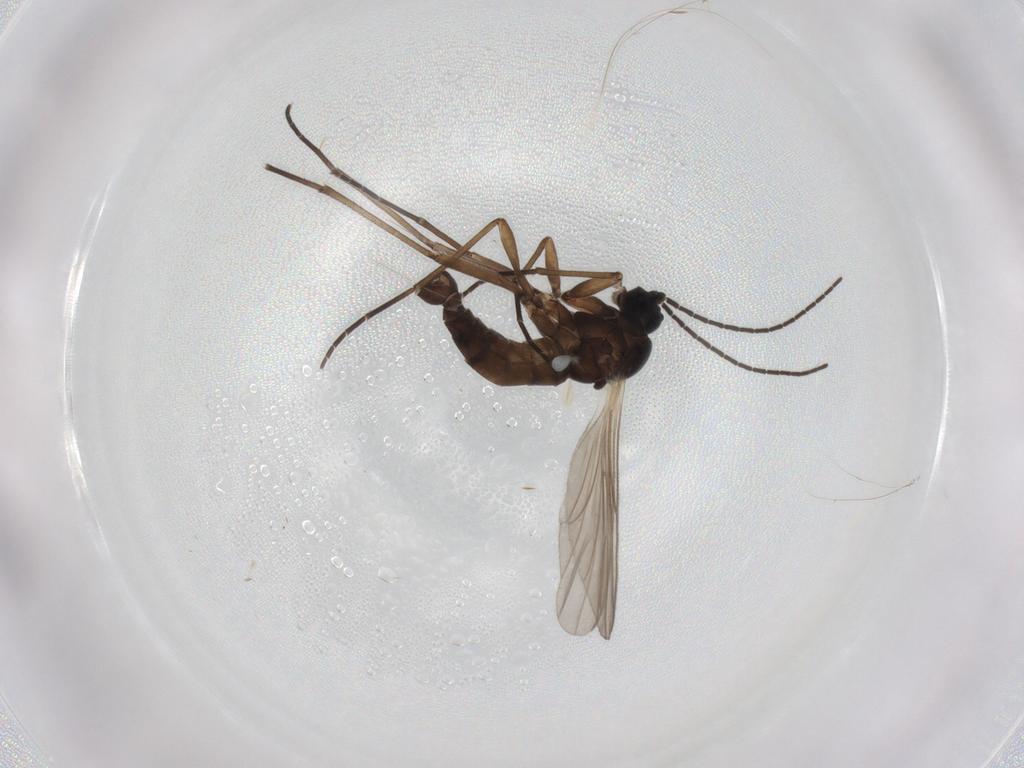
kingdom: Animalia
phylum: Arthropoda
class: Insecta
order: Diptera
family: Sciaridae
